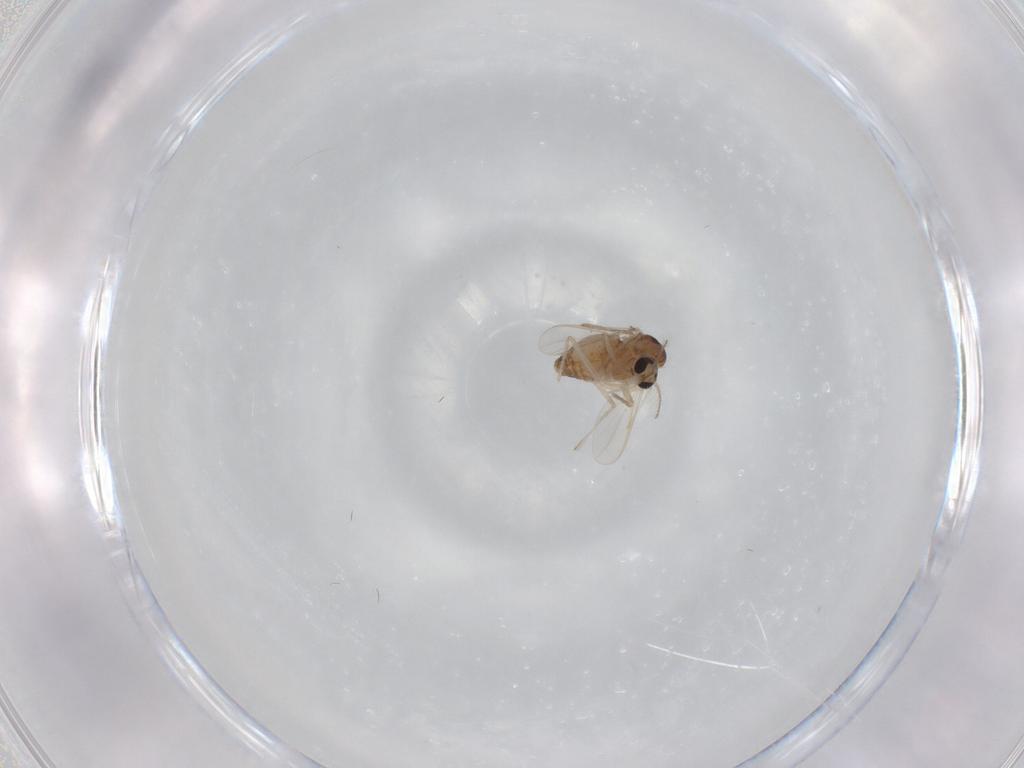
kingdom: Animalia
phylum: Arthropoda
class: Insecta
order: Diptera
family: Chironomidae
